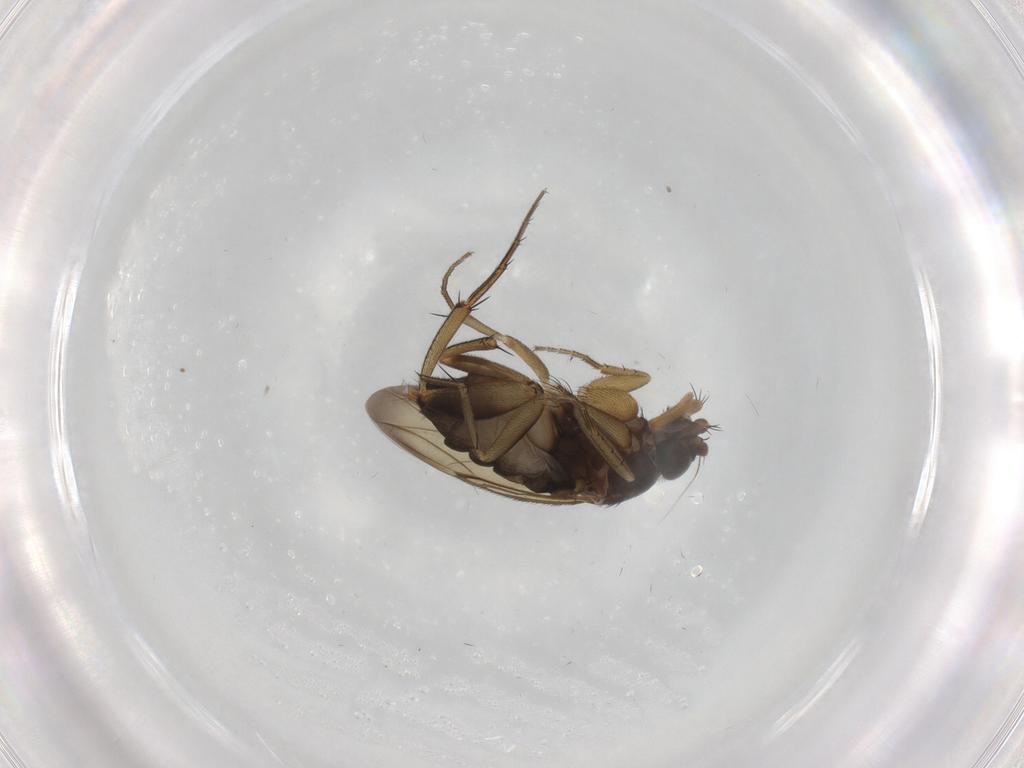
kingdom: Animalia
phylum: Arthropoda
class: Insecta
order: Diptera
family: Phoridae
